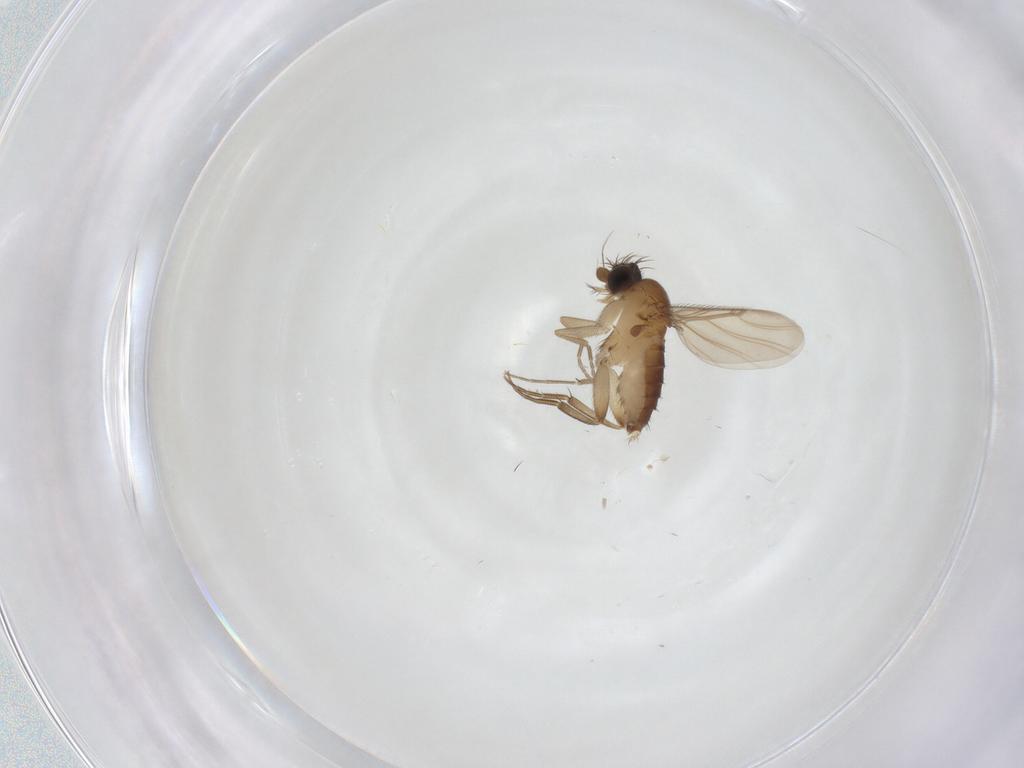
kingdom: Animalia
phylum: Arthropoda
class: Insecta
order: Diptera
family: Phoridae
